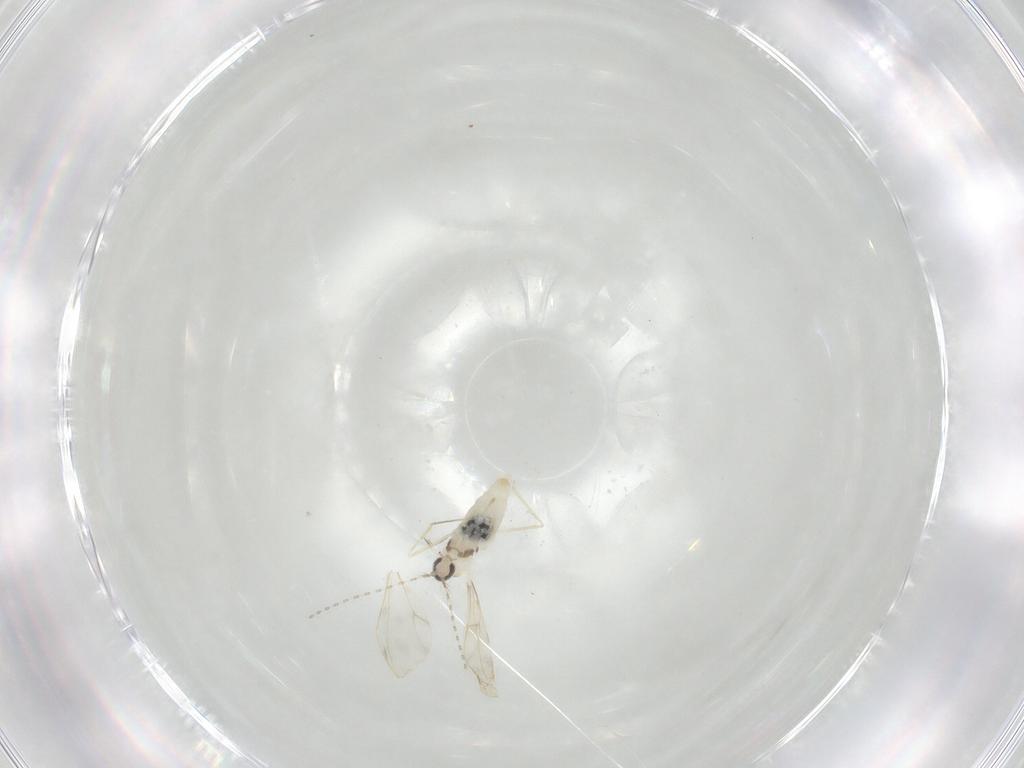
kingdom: Animalia
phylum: Arthropoda
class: Insecta
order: Diptera
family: Cecidomyiidae
